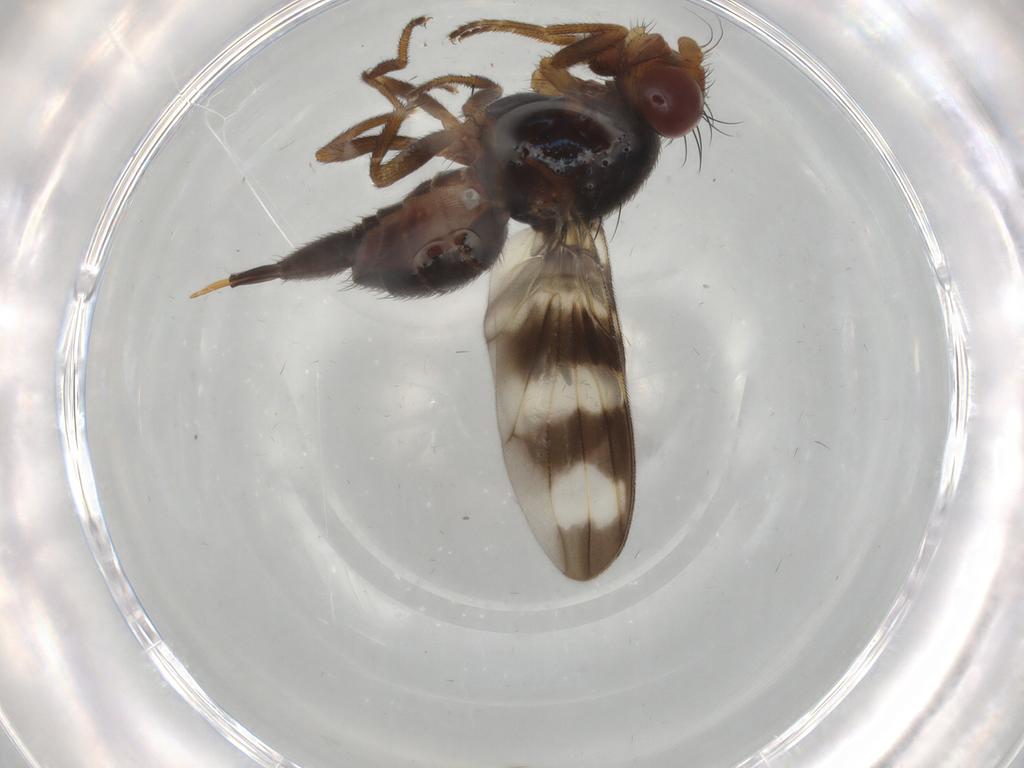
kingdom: Animalia
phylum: Arthropoda
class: Insecta
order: Diptera
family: Ulidiidae
